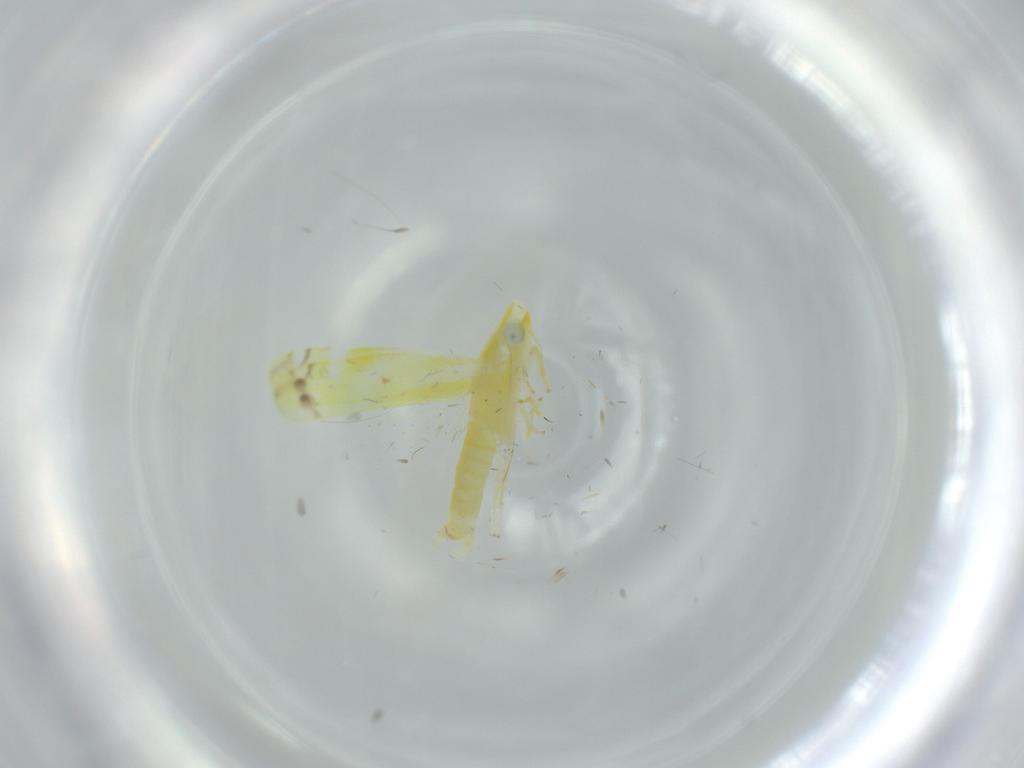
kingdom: Animalia
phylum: Arthropoda
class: Insecta
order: Hemiptera
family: Cicadellidae
